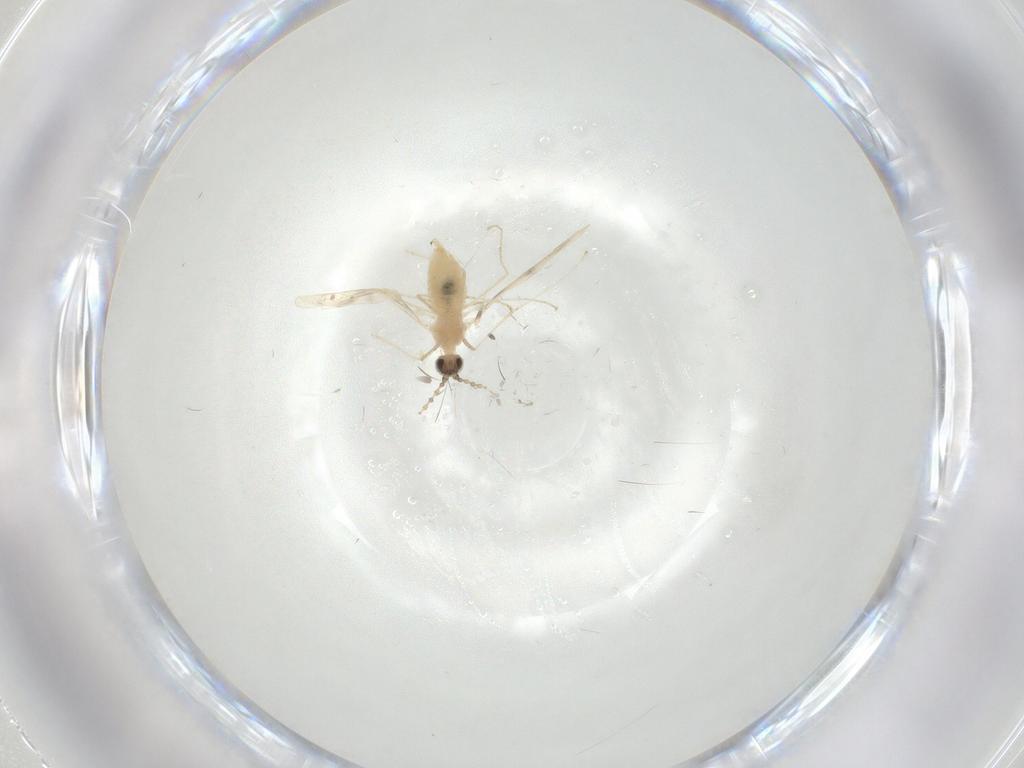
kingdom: Animalia
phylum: Arthropoda
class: Insecta
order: Diptera
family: Cecidomyiidae
